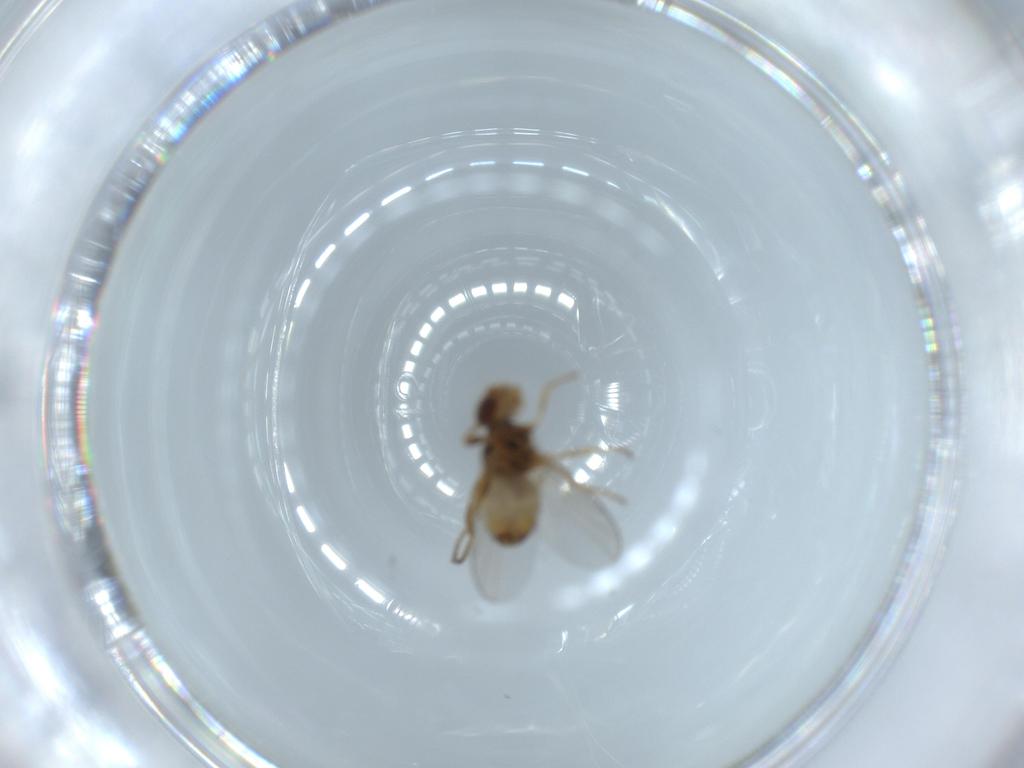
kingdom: Animalia
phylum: Arthropoda
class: Insecta
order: Diptera
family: Chloropidae
